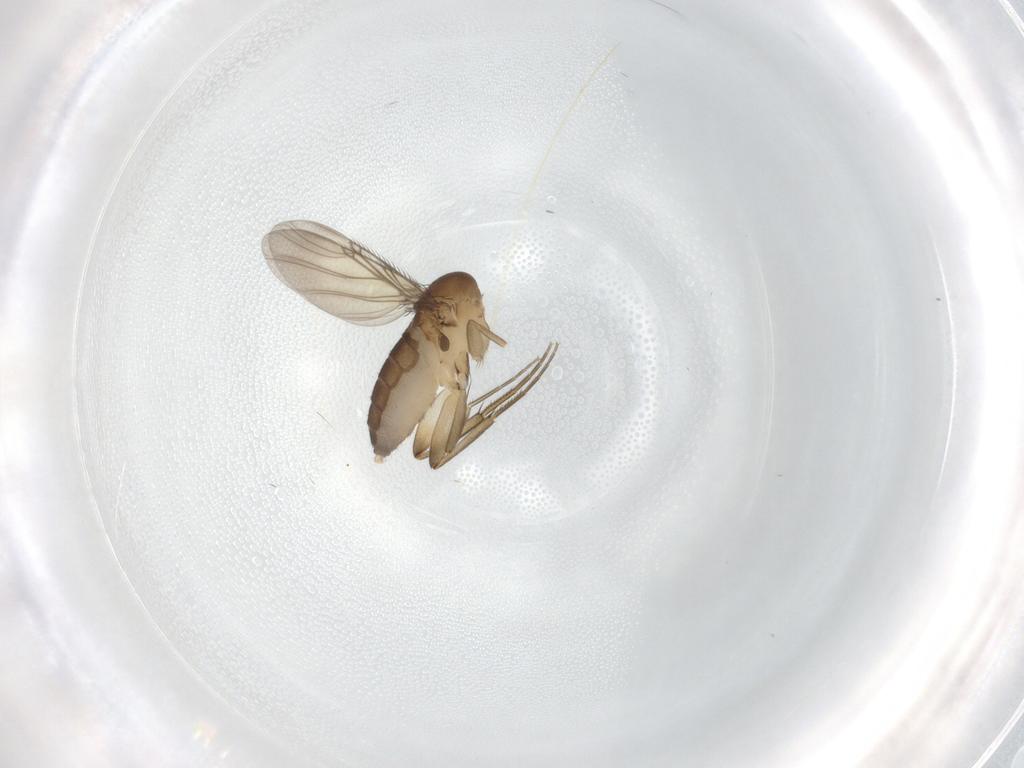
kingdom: Animalia
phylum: Arthropoda
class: Insecta
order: Diptera
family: Phoridae
